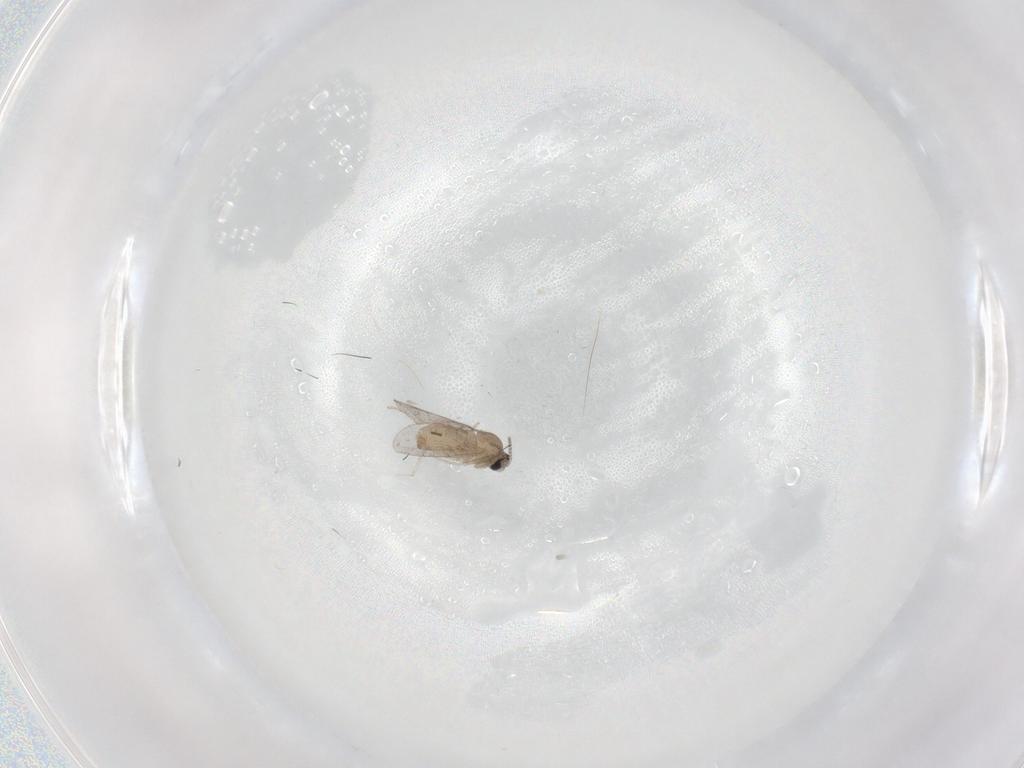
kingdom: Animalia
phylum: Arthropoda
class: Insecta
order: Diptera
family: Cecidomyiidae
